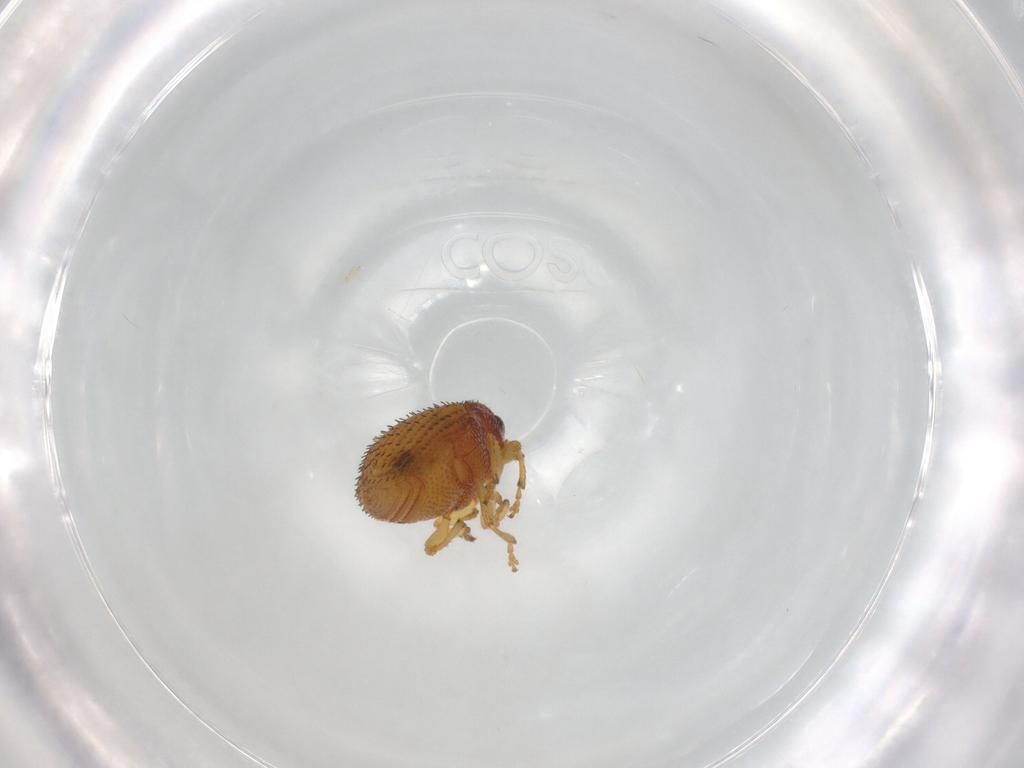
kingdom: Animalia
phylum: Arthropoda
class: Insecta
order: Coleoptera
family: Curculionidae
